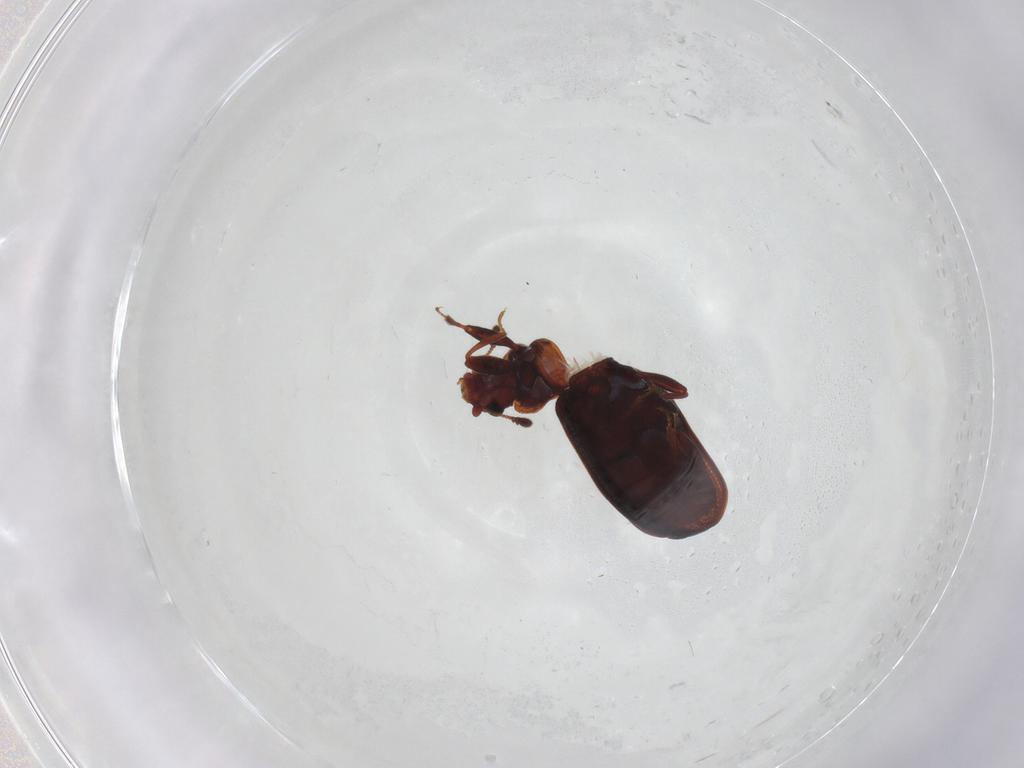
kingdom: Animalia
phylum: Arthropoda
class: Insecta
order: Coleoptera
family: Latridiidae
